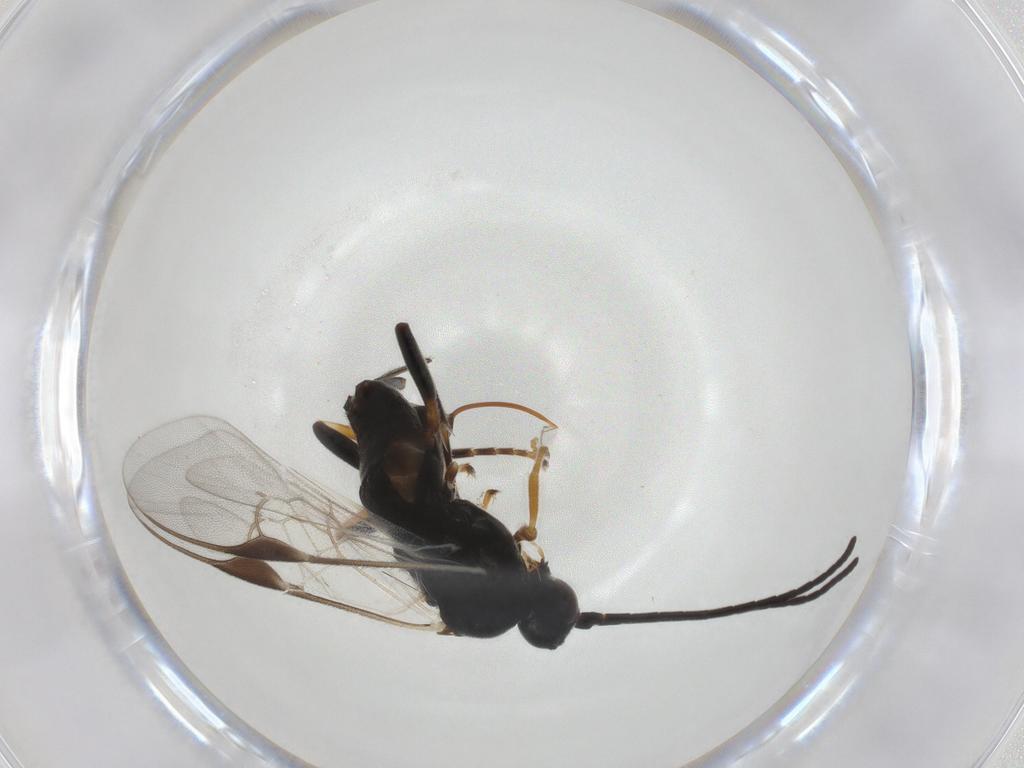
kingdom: Animalia
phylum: Arthropoda
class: Insecta
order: Hymenoptera
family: Braconidae
